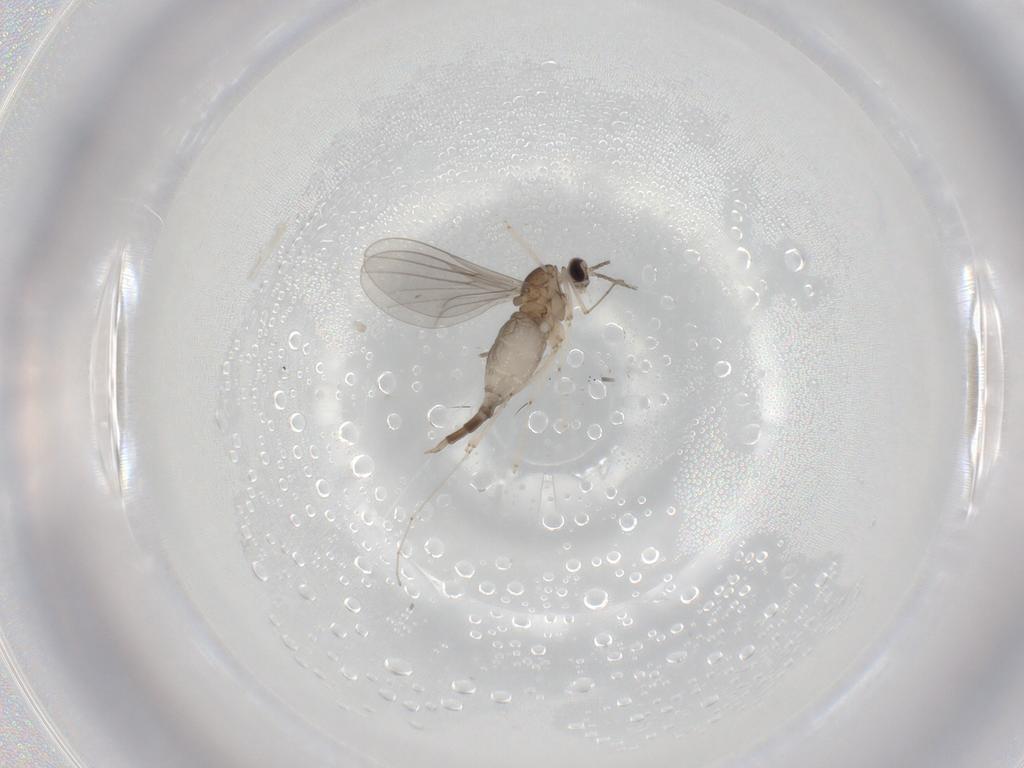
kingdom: Animalia
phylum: Arthropoda
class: Insecta
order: Diptera
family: Cecidomyiidae
